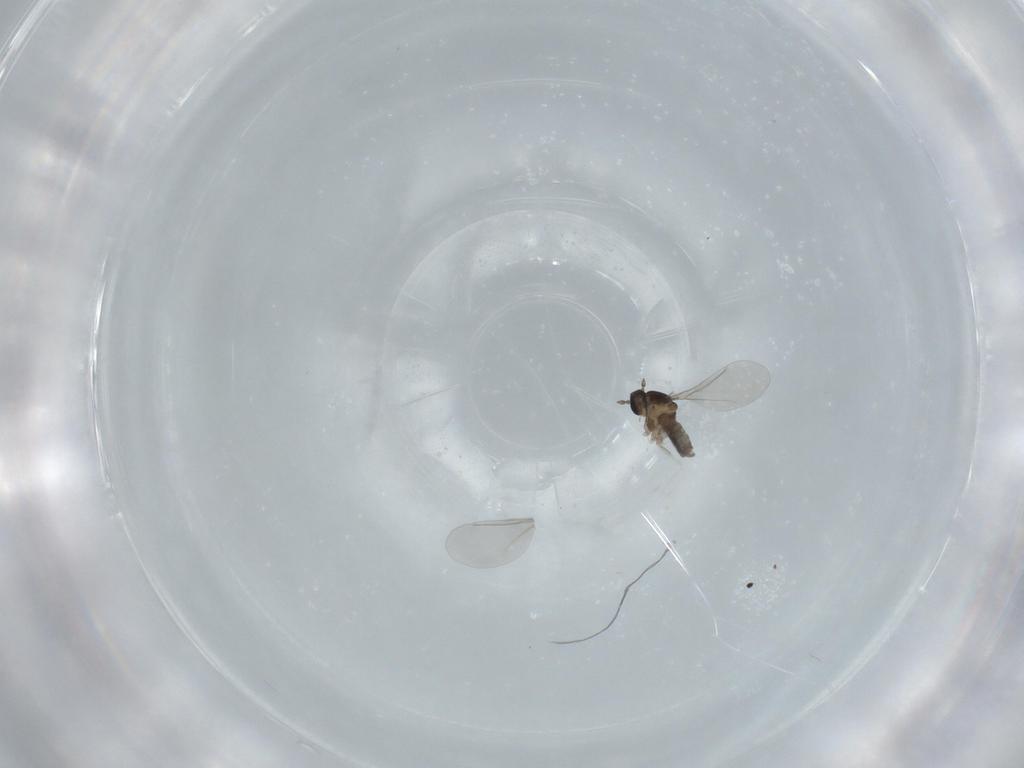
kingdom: Animalia
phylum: Arthropoda
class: Insecta
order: Diptera
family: Cecidomyiidae
